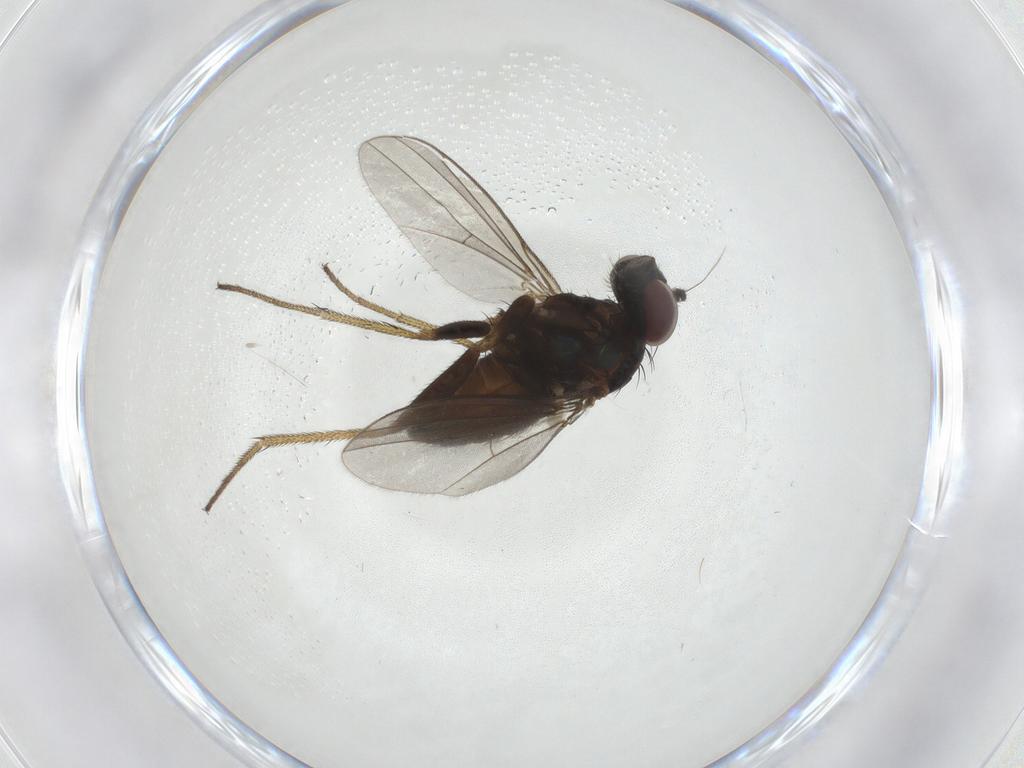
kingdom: Animalia
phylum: Arthropoda
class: Insecta
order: Diptera
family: Dolichopodidae
